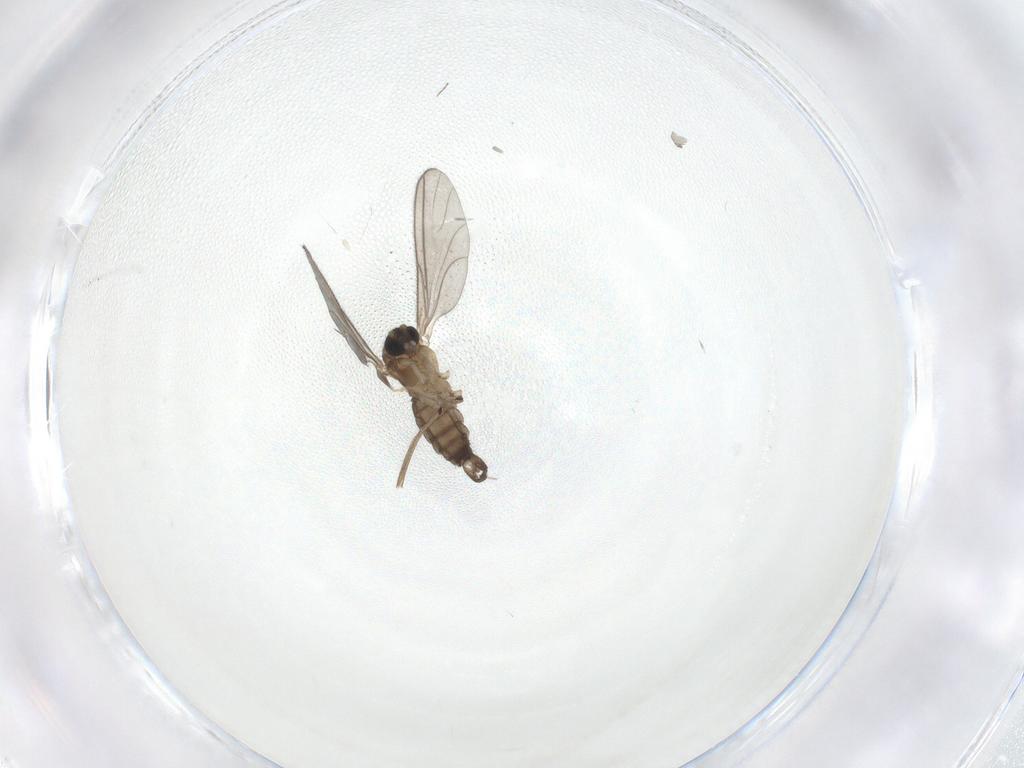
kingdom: Animalia
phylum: Arthropoda
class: Insecta
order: Diptera
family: Sciaridae
